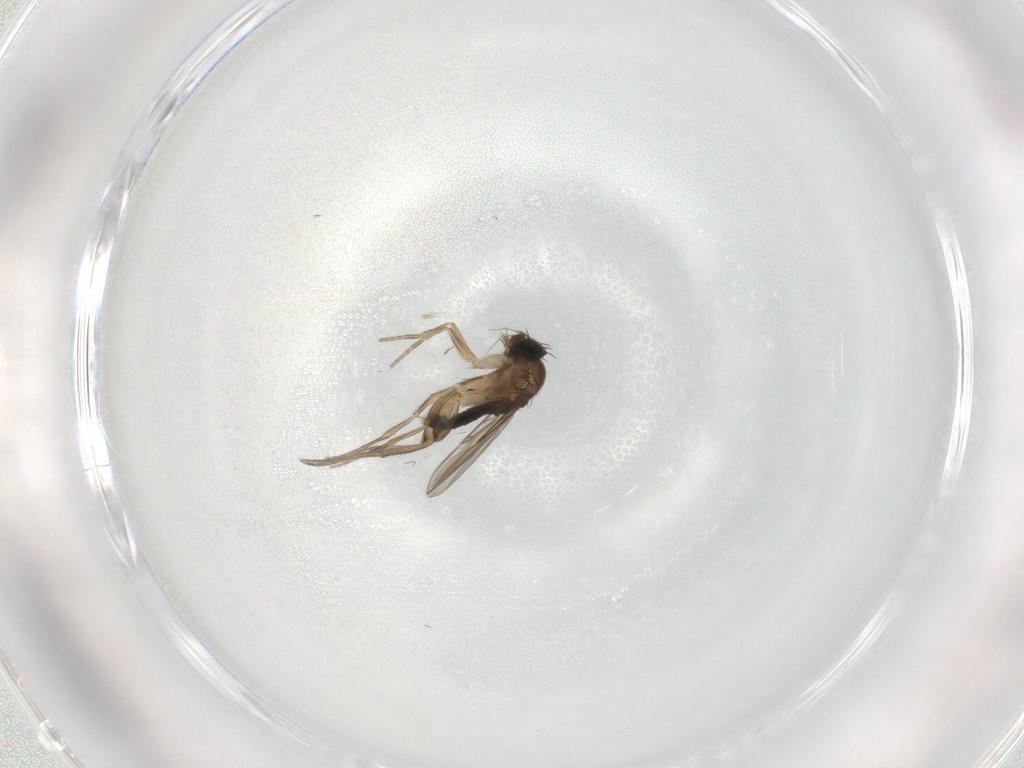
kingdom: Animalia
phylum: Arthropoda
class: Insecta
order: Diptera
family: Phoridae
